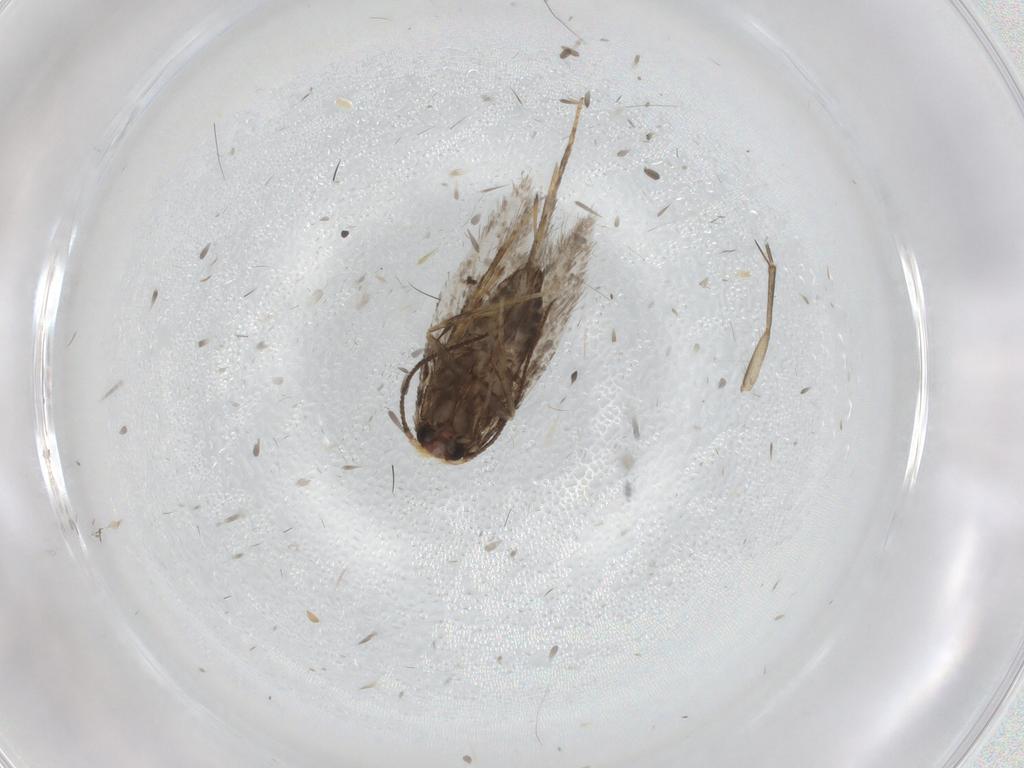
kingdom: Animalia
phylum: Arthropoda
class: Insecta
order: Lepidoptera
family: Nepticulidae
